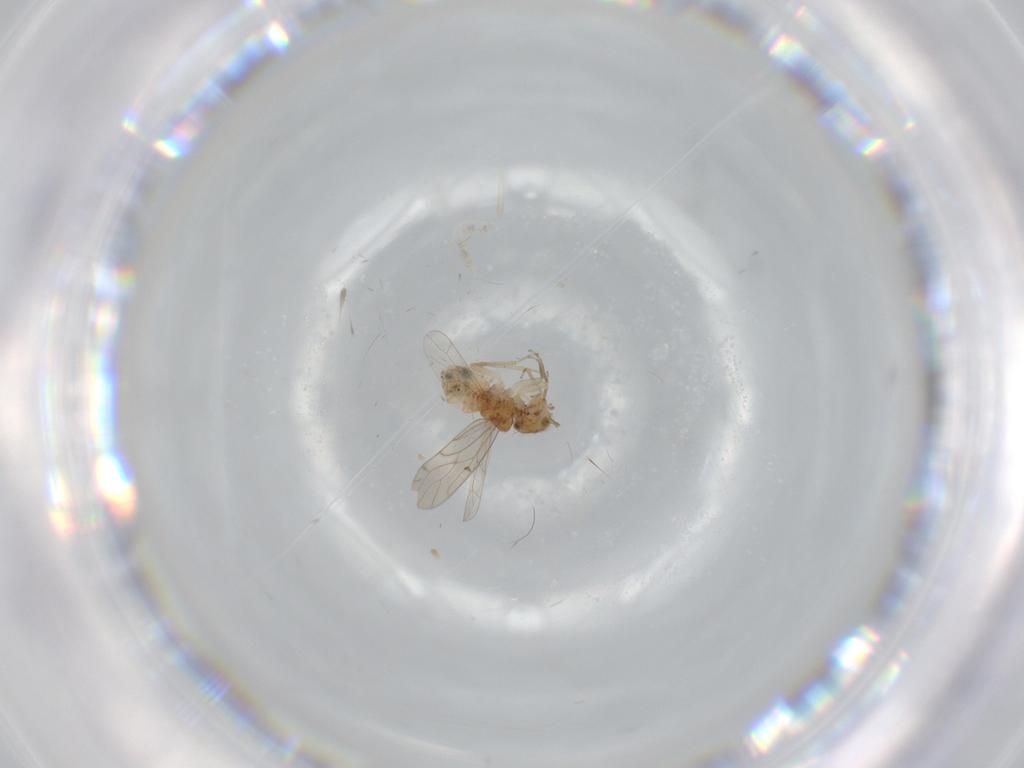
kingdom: Animalia
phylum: Arthropoda
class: Insecta
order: Psocodea
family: Ectopsocidae
